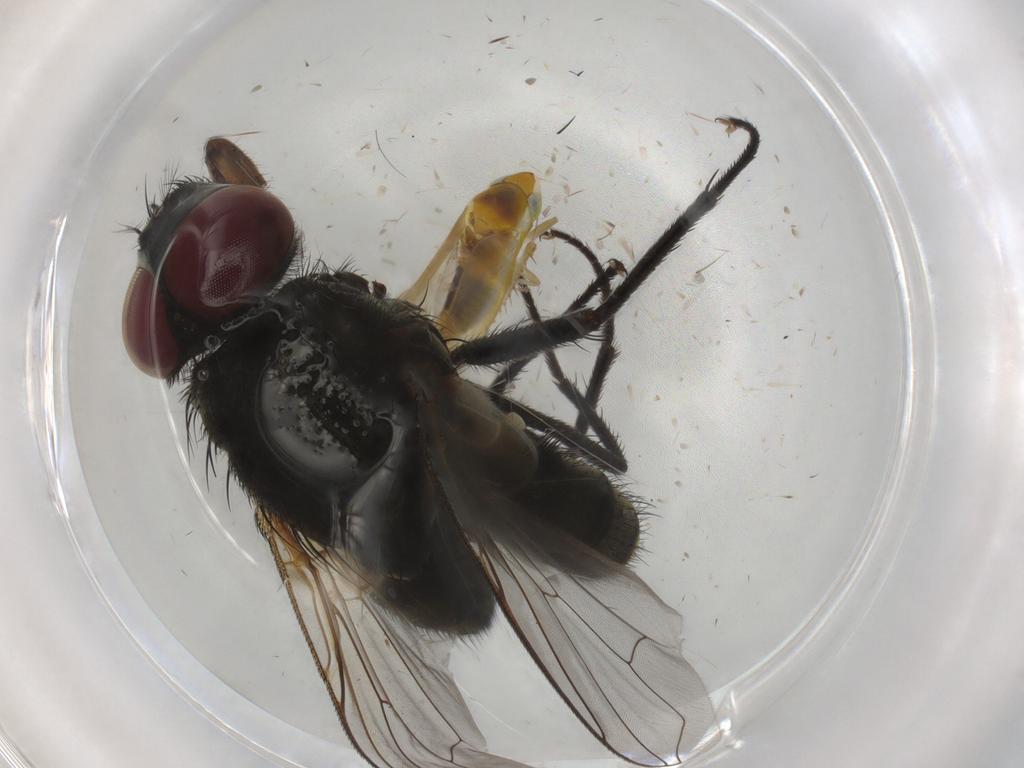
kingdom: Animalia
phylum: Arthropoda
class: Insecta
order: Diptera
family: Muscidae
